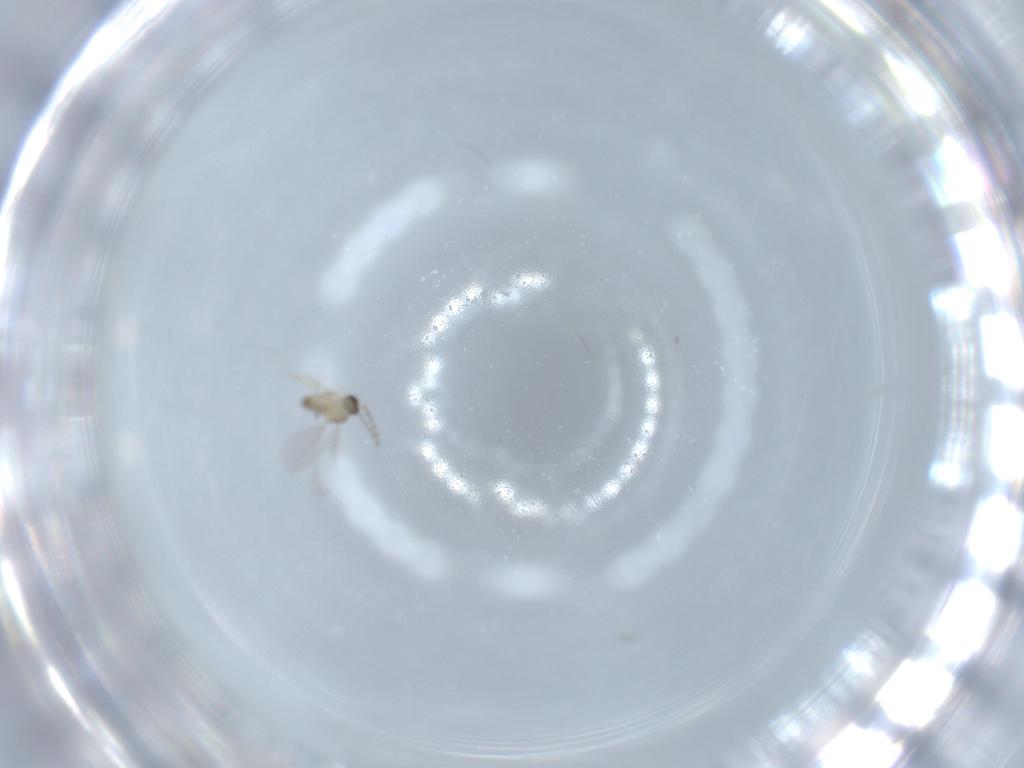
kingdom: Animalia
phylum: Arthropoda
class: Insecta
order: Diptera
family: Cecidomyiidae
